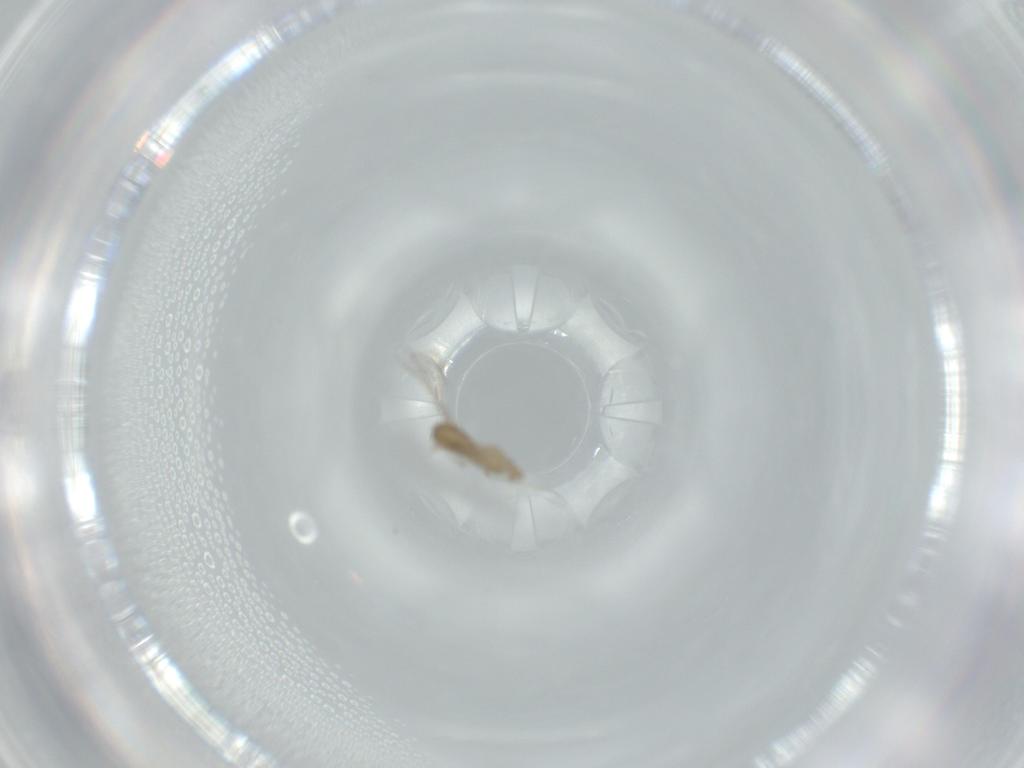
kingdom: Animalia
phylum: Arthropoda
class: Insecta
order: Diptera
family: Cecidomyiidae
